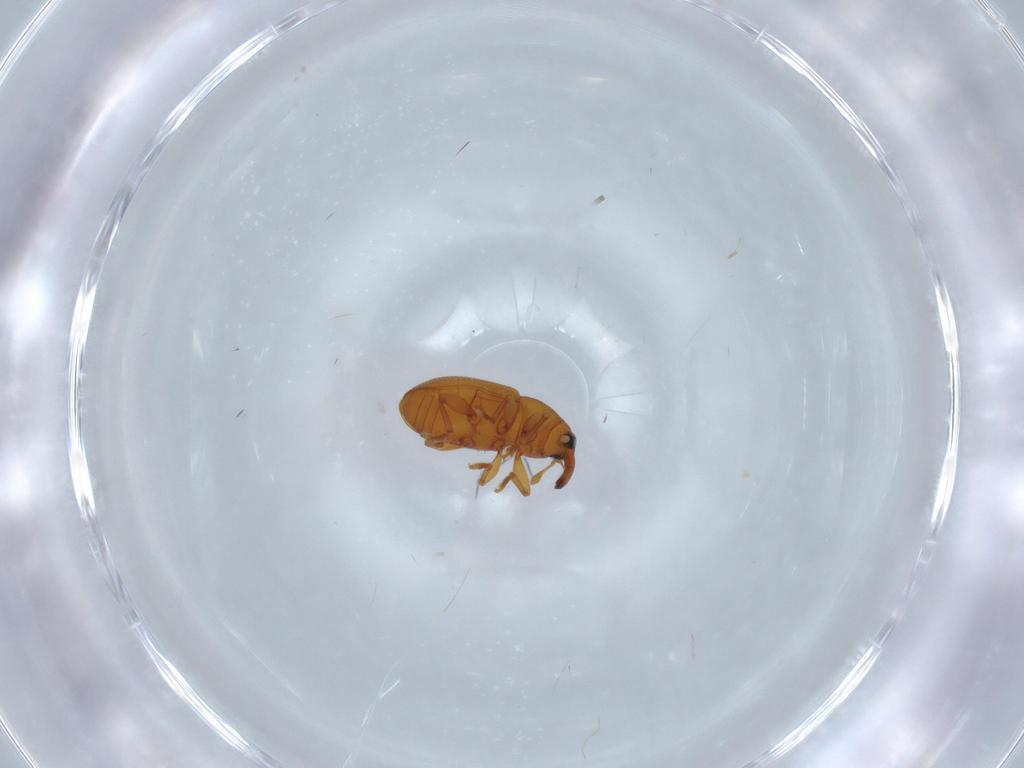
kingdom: Animalia
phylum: Arthropoda
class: Insecta
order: Coleoptera
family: Curculionidae
